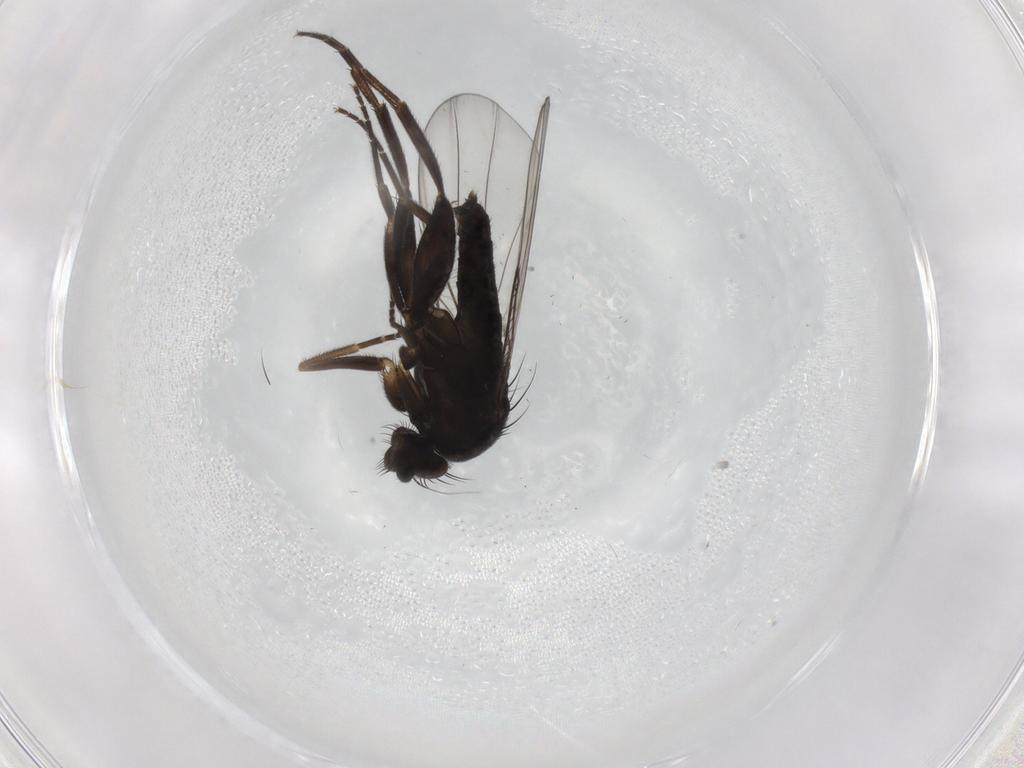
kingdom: Animalia
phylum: Arthropoda
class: Insecta
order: Diptera
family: Phoridae
